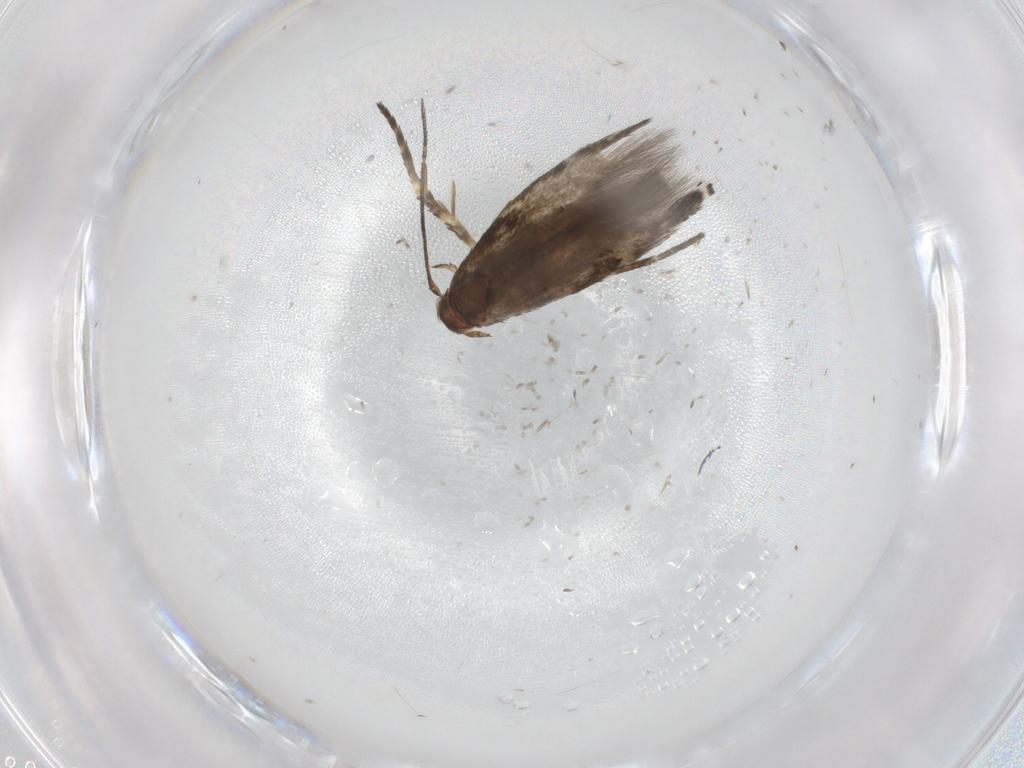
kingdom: Animalia
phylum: Arthropoda
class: Insecta
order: Lepidoptera
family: Momphidae
